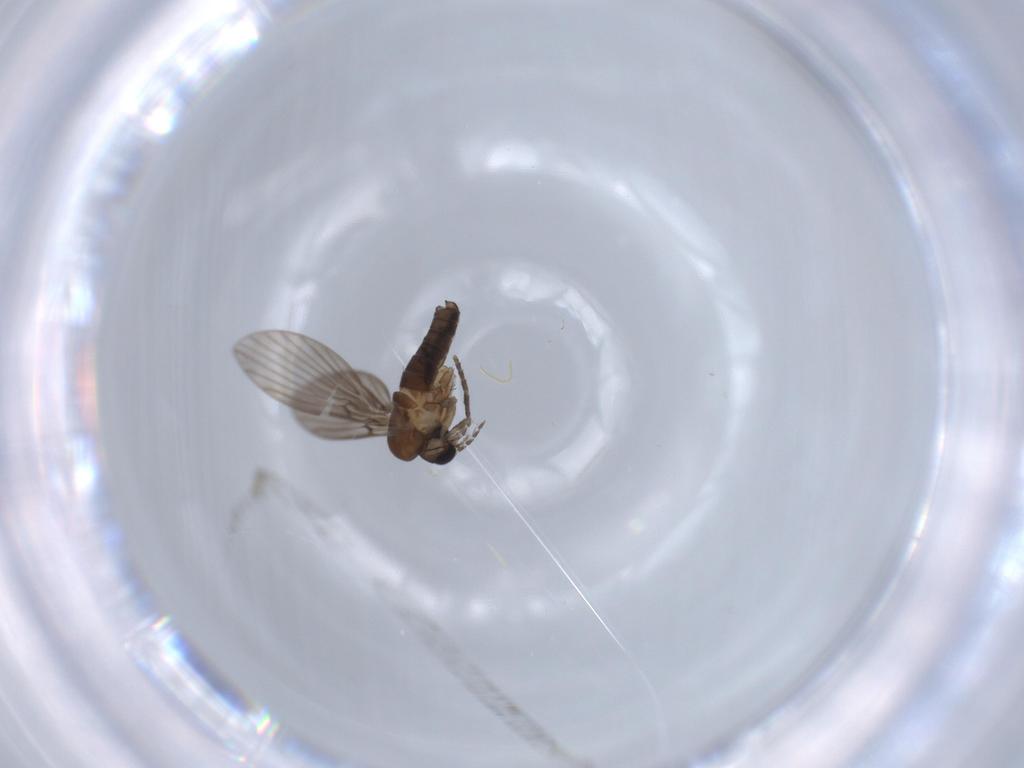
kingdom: Animalia
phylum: Arthropoda
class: Insecta
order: Diptera
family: Psychodidae
